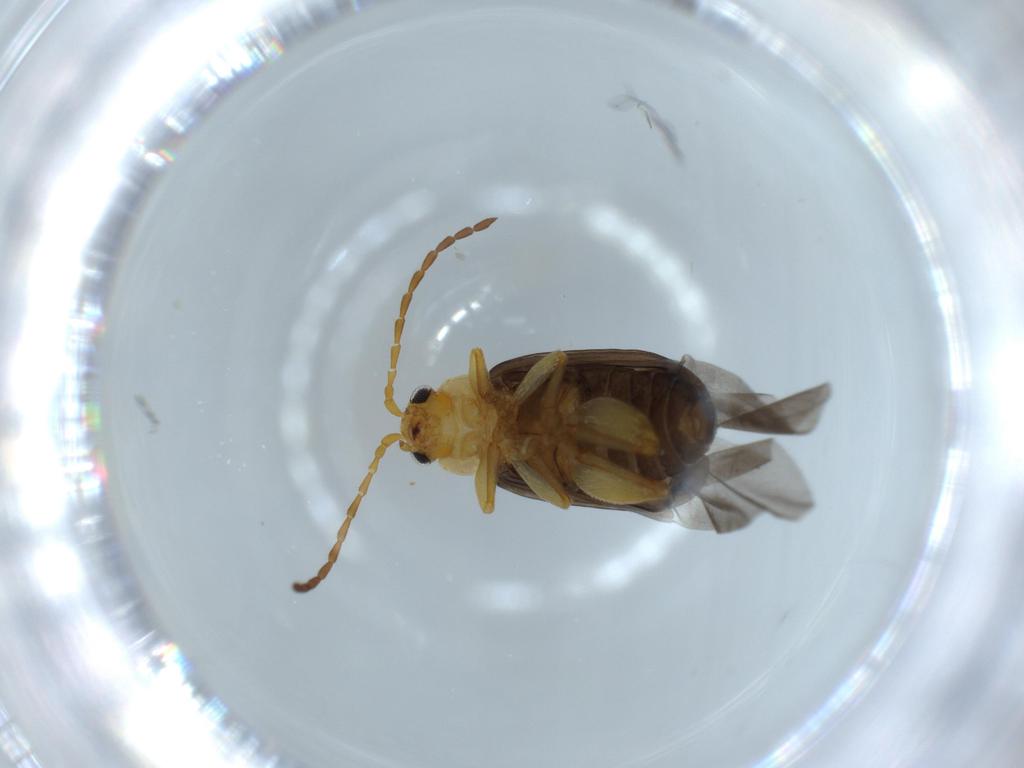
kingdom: Animalia
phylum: Arthropoda
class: Insecta
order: Coleoptera
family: Chrysomelidae
